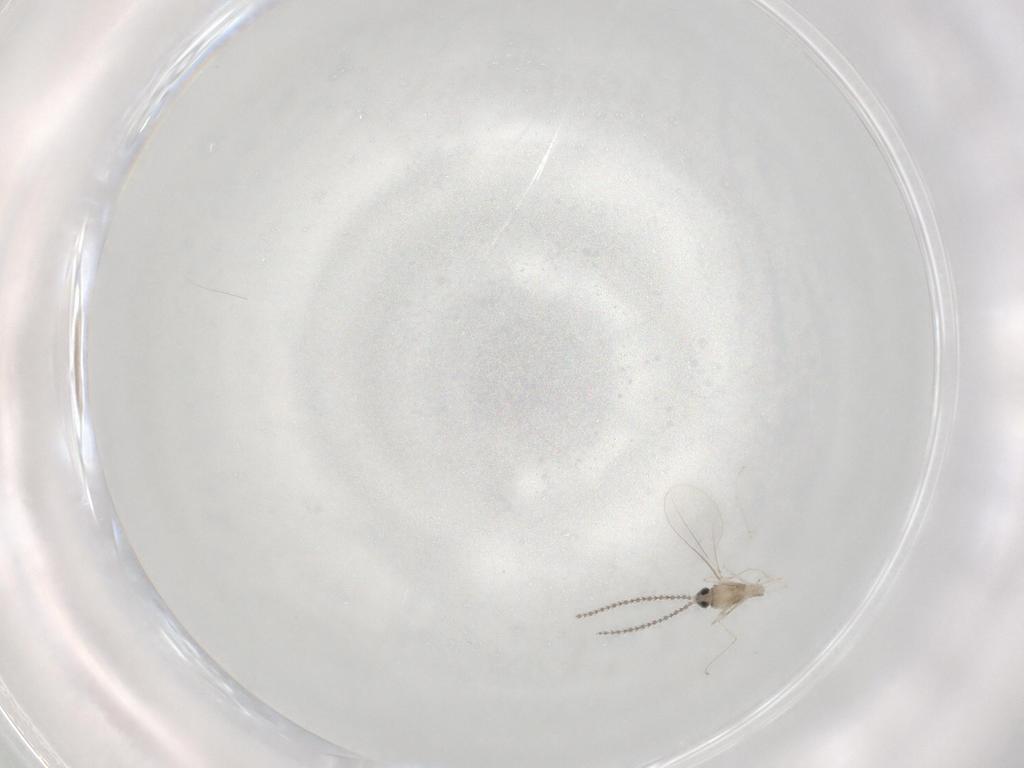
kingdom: Animalia
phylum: Arthropoda
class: Insecta
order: Diptera
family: Cecidomyiidae
